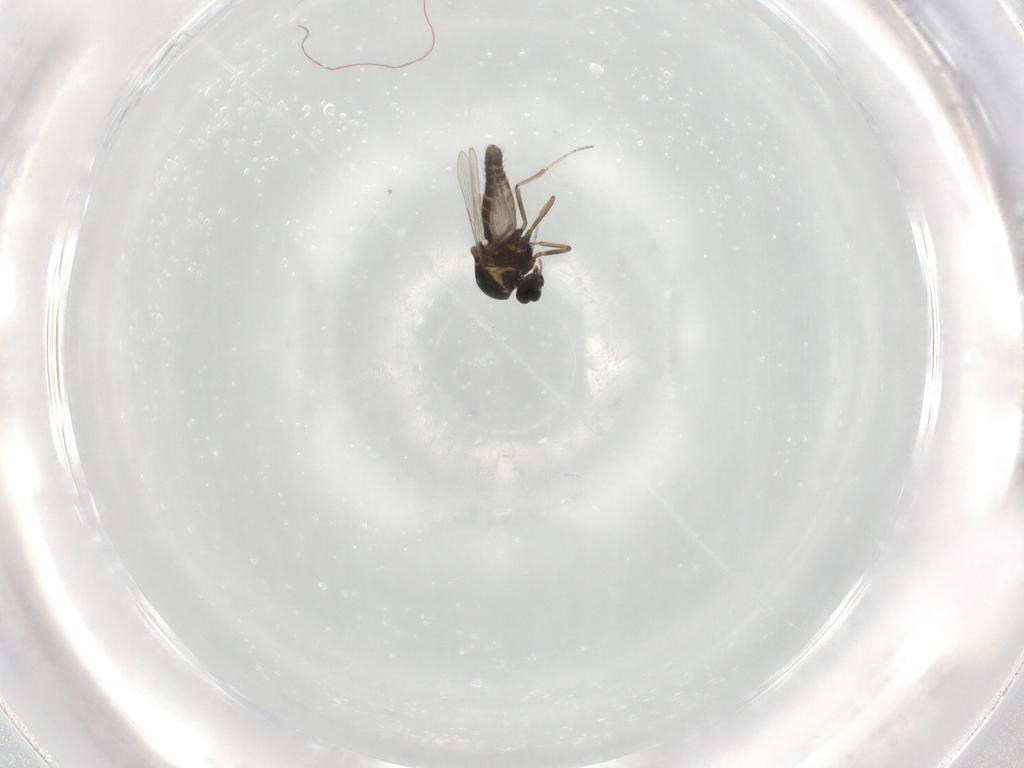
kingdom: Animalia
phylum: Arthropoda
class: Insecta
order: Diptera
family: Ceratopogonidae
